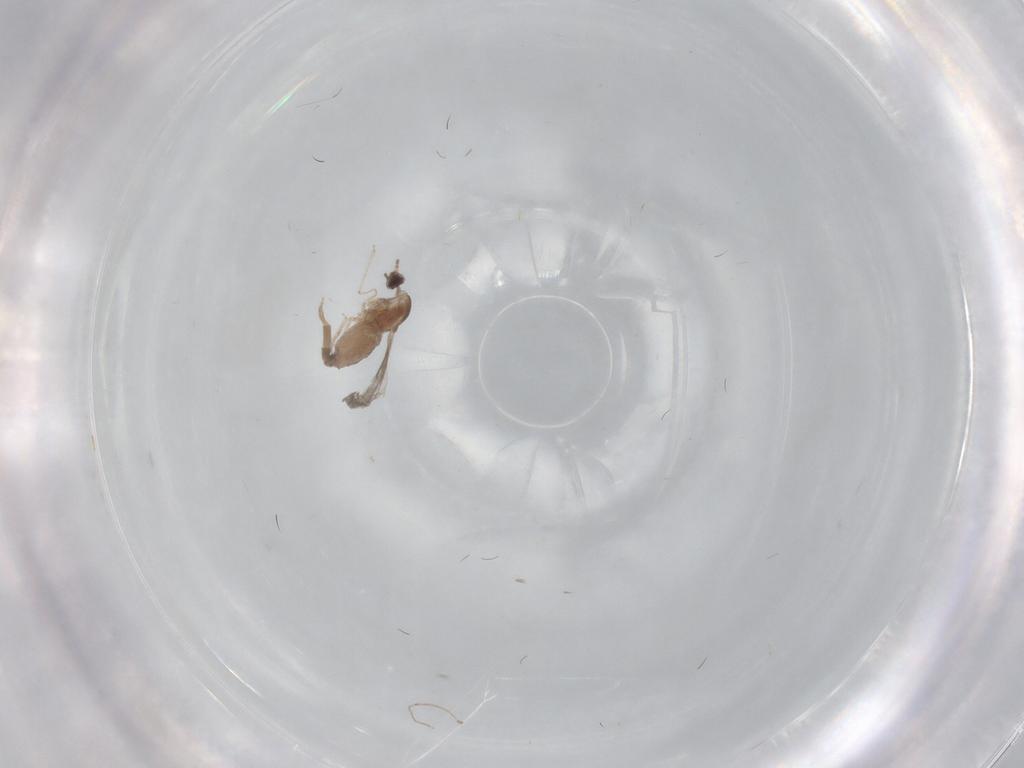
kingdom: Animalia
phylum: Arthropoda
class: Insecta
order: Diptera
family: Cecidomyiidae
